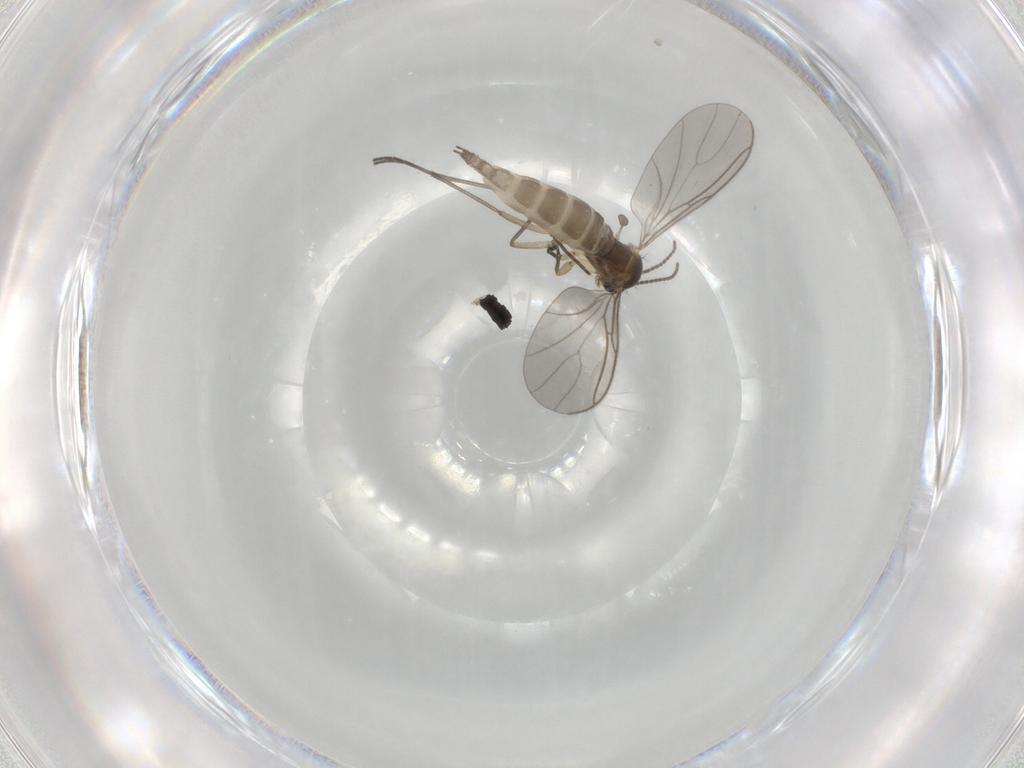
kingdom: Animalia
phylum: Arthropoda
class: Insecta
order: Diptera
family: Sciaridae
